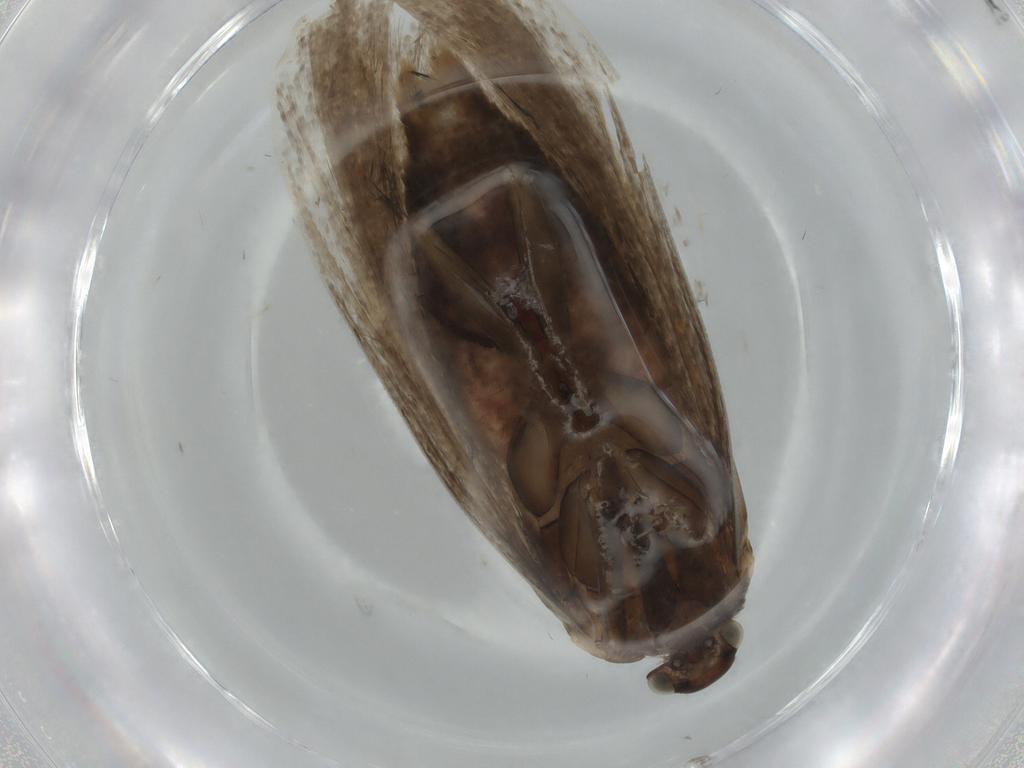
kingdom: Animalia
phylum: Arthropoda
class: Insecta
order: Lepidoptera
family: Gelechiidae
